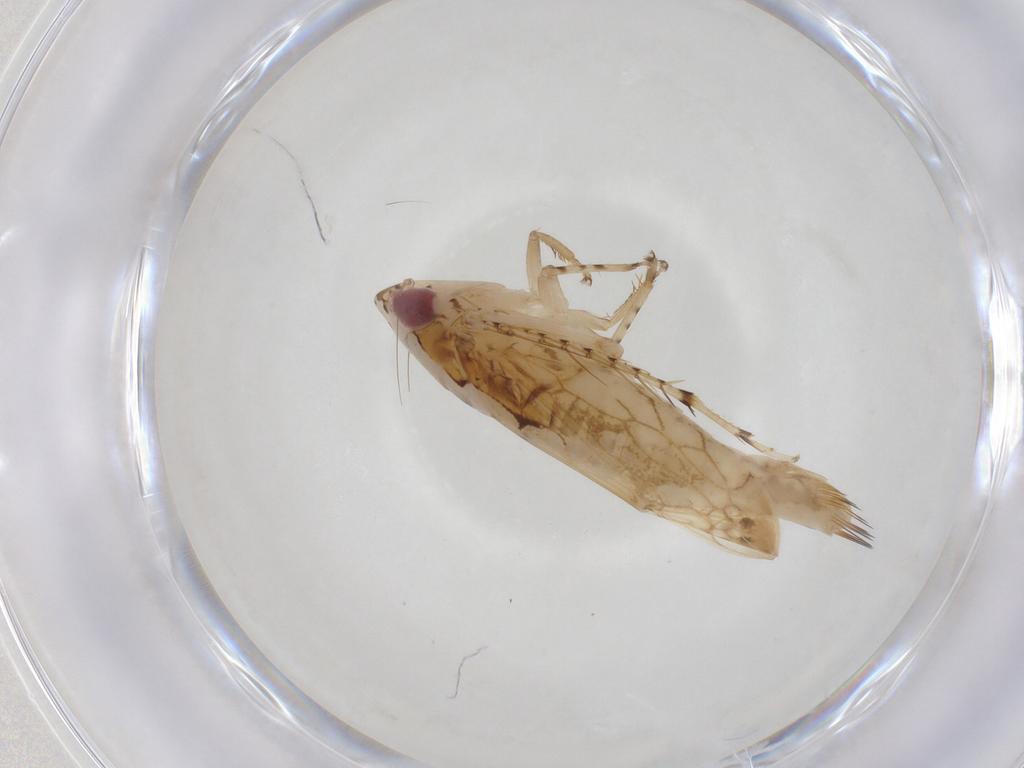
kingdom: Animalia
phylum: Arthropoda
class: Insecta
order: Hemiptera
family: Cicadellidae
